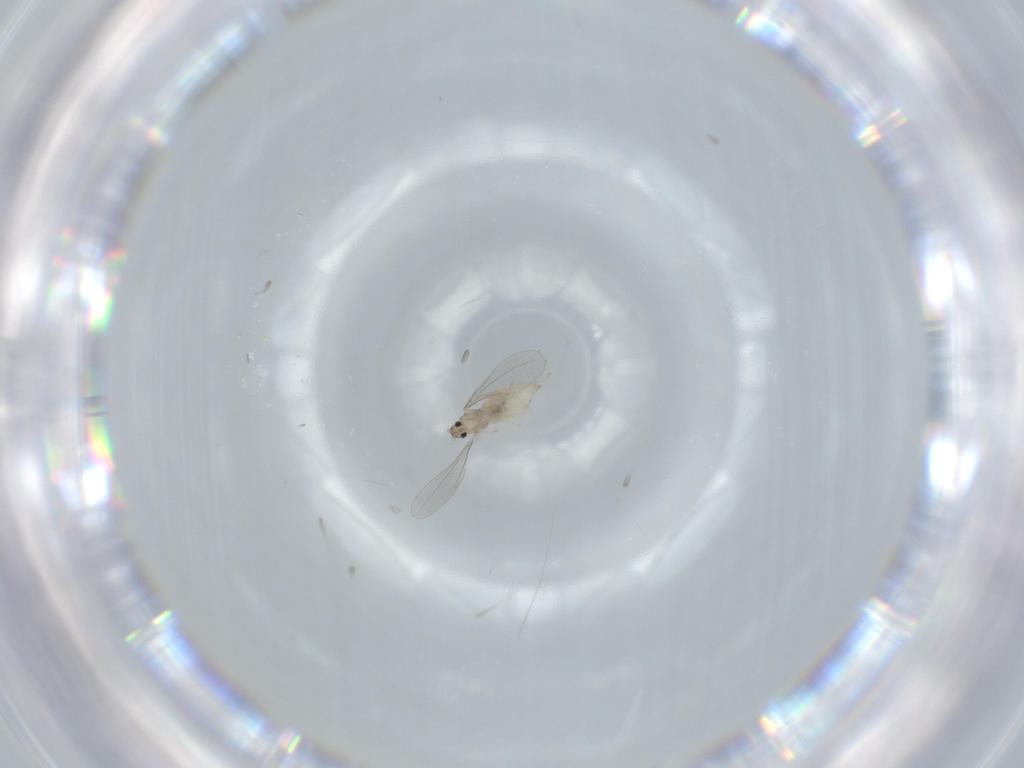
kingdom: Animalia
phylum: Arthropoda
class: Insecta
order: Diptera
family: Cecidomyiidae
